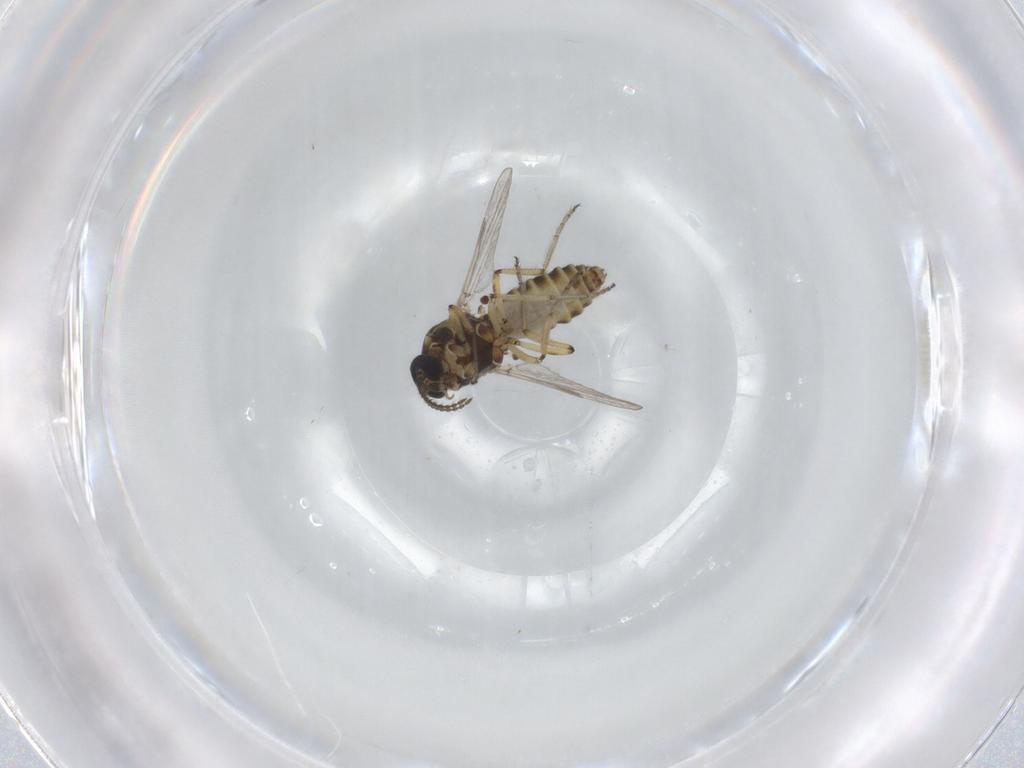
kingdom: Animalia
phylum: Arthropoda
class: Insecta
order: Diptera
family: Ceratopogonidae
